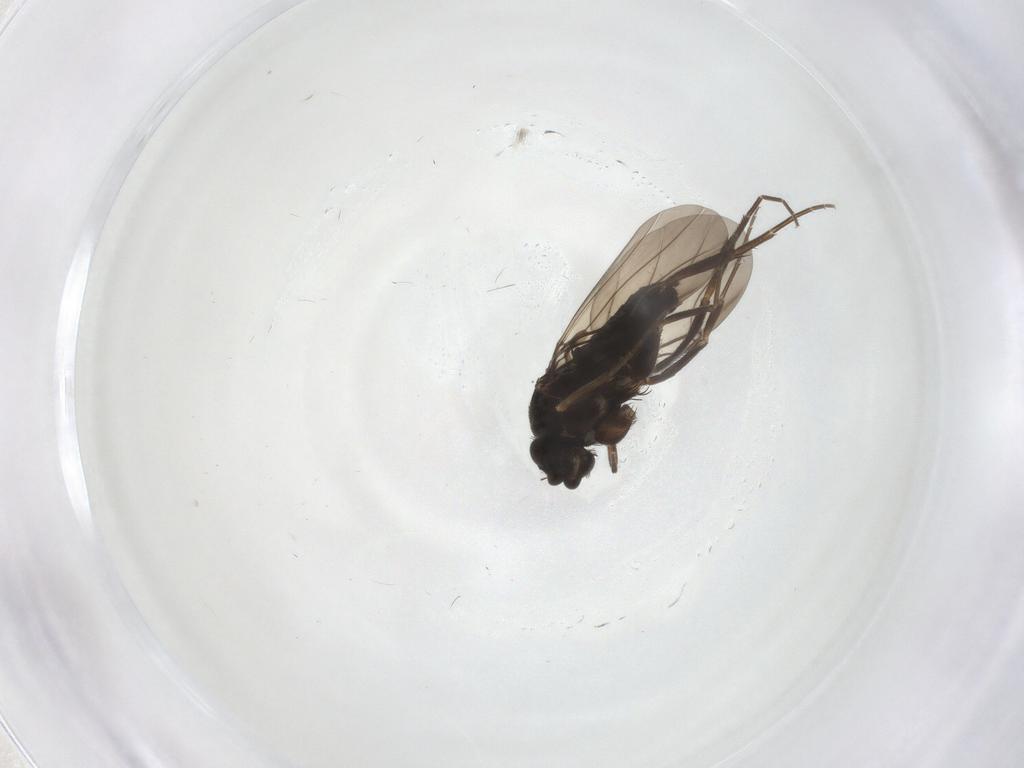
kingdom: Animalia
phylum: Arthropoda
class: Insecta
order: Diptera
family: Phoridae
